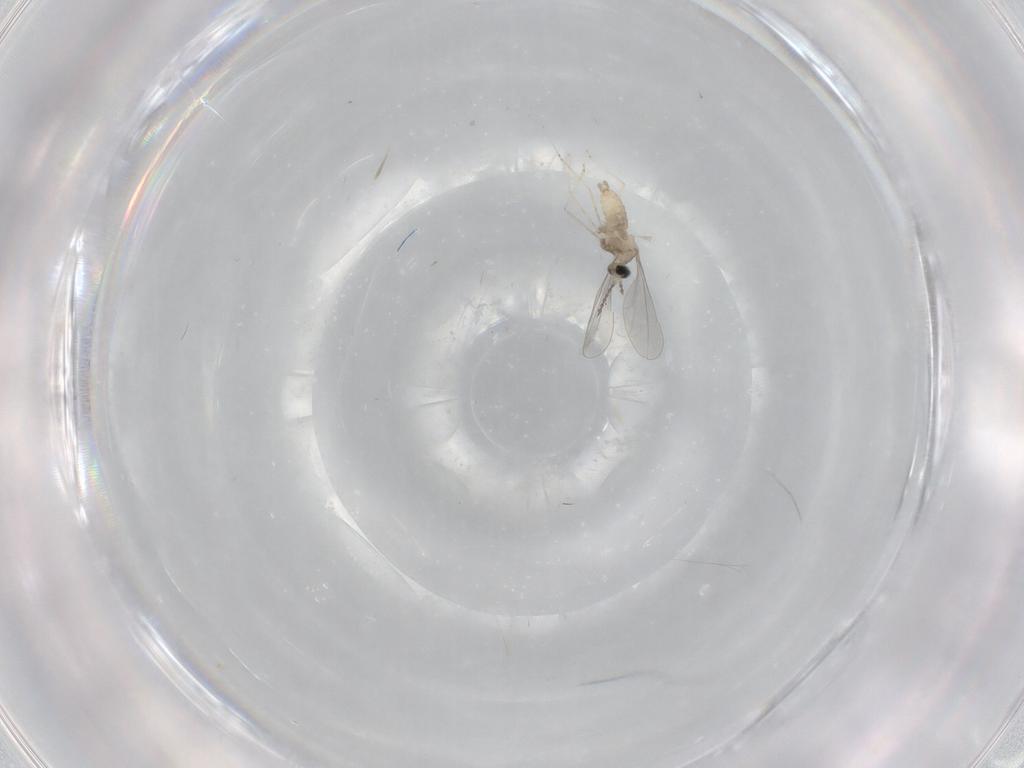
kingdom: Animalia
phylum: Arthropoda
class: Insecta
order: Diptera
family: Cecidomyiidae
